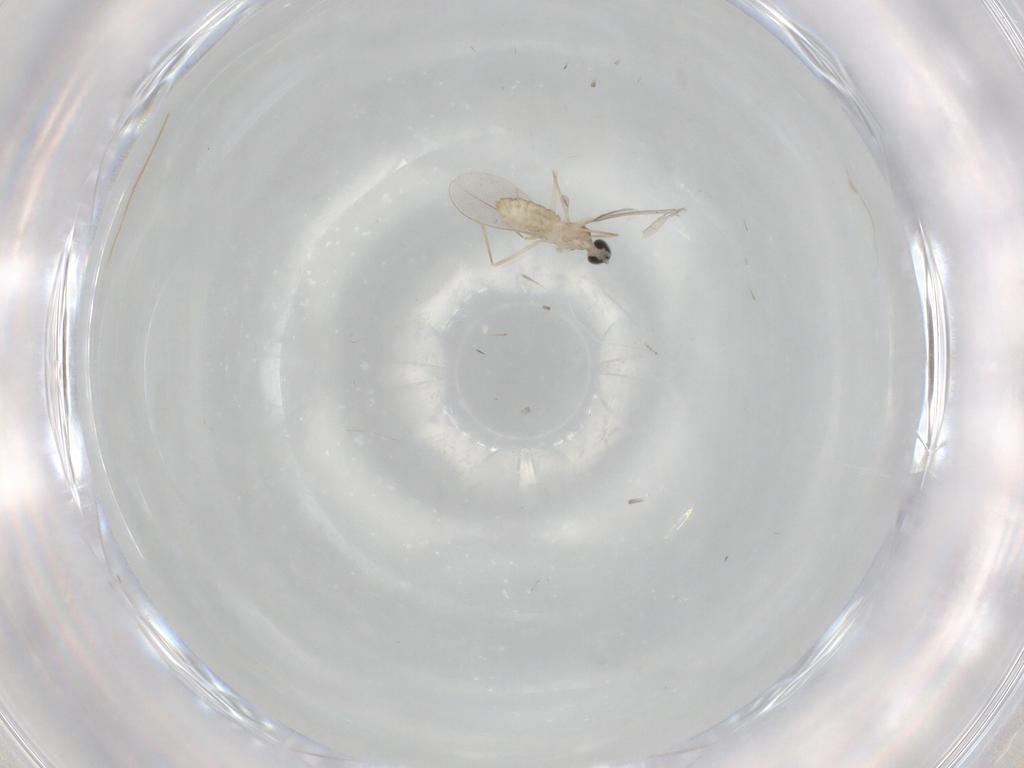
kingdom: Animalia
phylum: Arthropoda
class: Insecta
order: Diptera
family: Cecidomyiidae
